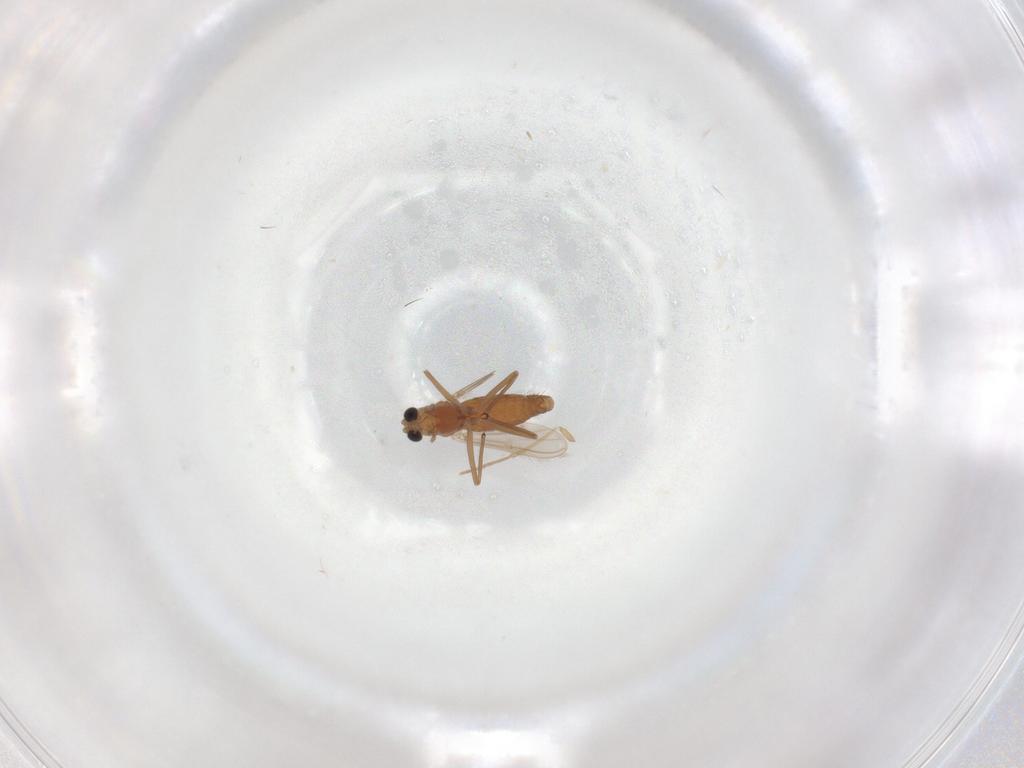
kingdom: Animalia
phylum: Arthropoda
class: Insecta
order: Diptera
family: Chironomidae
